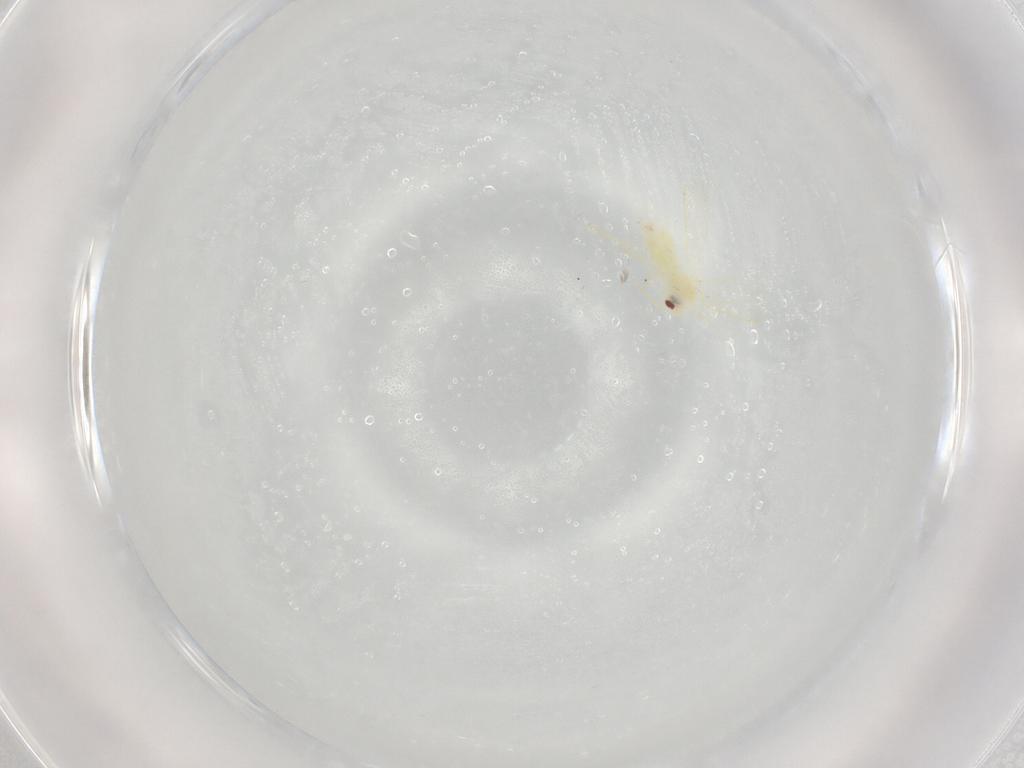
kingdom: Animalia
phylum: Arthropoda
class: Insecta
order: Hemiptera
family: Aleyrodidae
